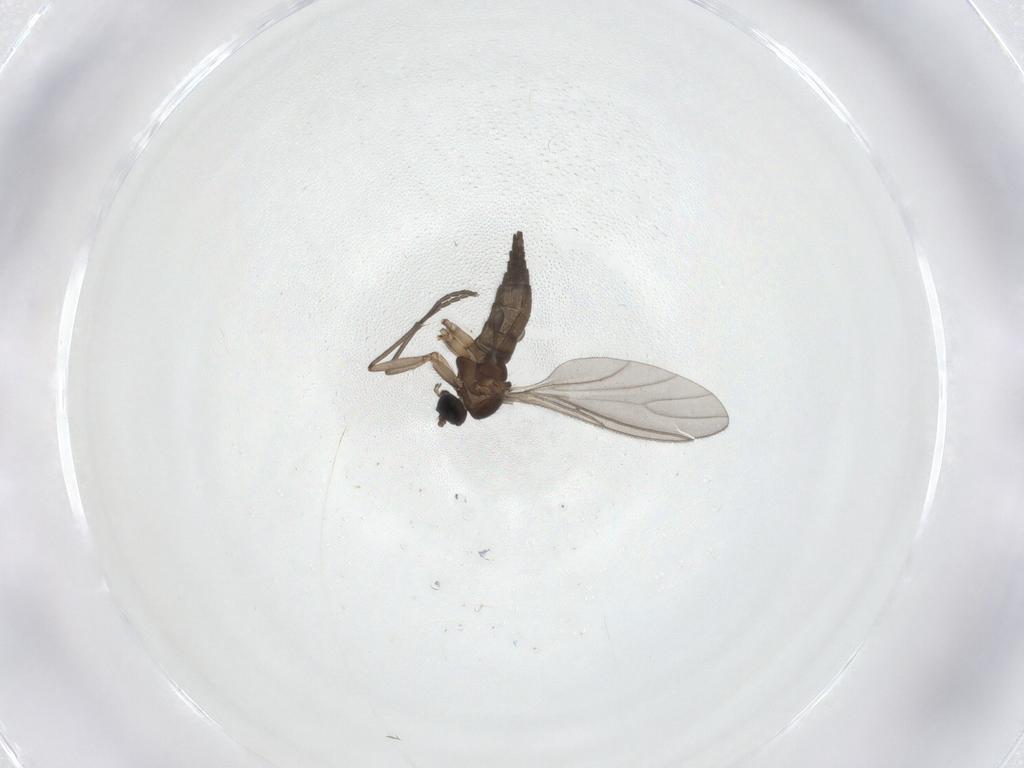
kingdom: Animalia
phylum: Arthropoda
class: Insecta
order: Diptera
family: Sciaridae
